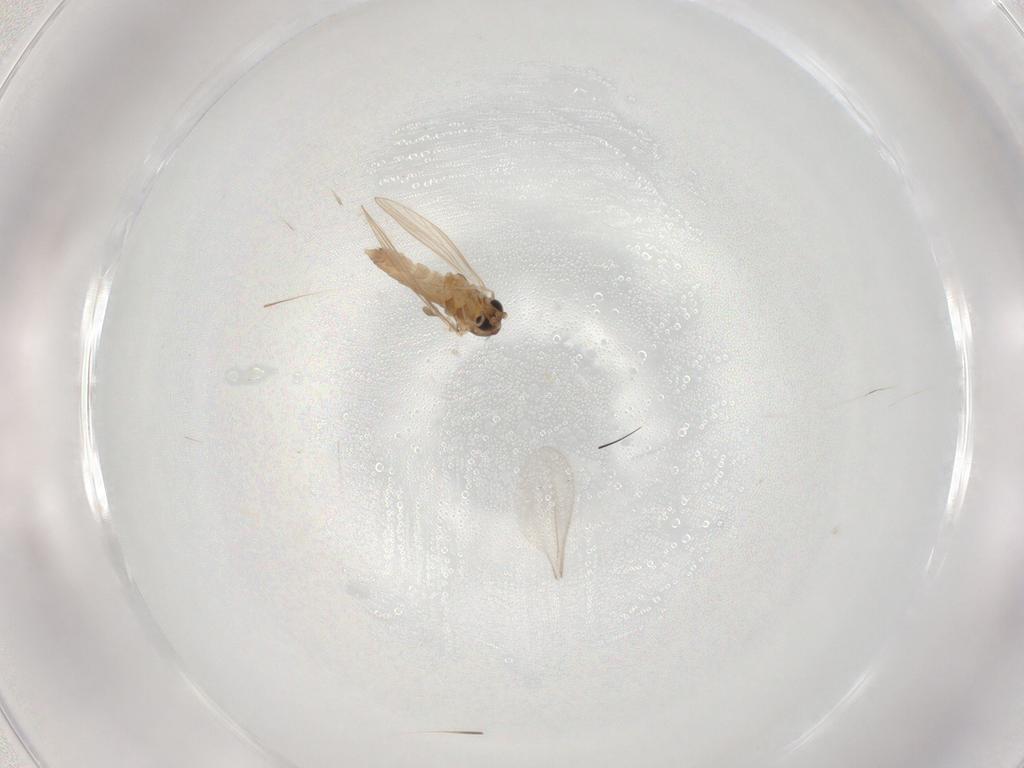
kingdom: Animalia
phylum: Arthropoda
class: Insecta
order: Diptera
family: Psychodidae
